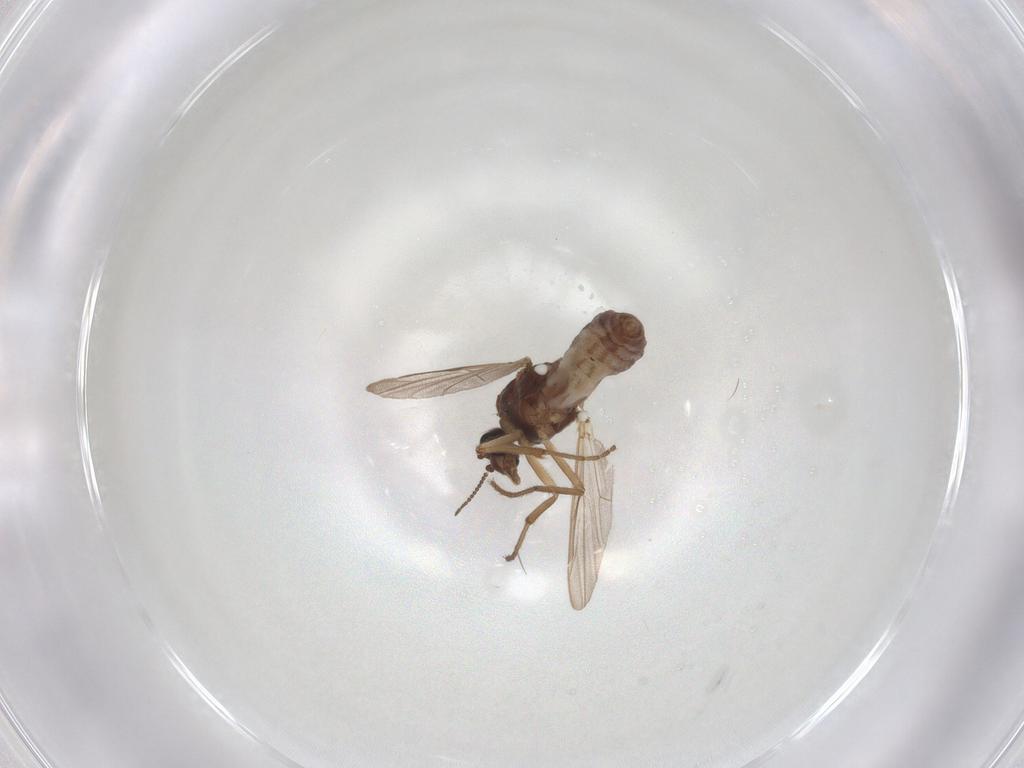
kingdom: Animalia
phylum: Arthropoda
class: Insecta
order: Diptera
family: Ceratopogonidae
